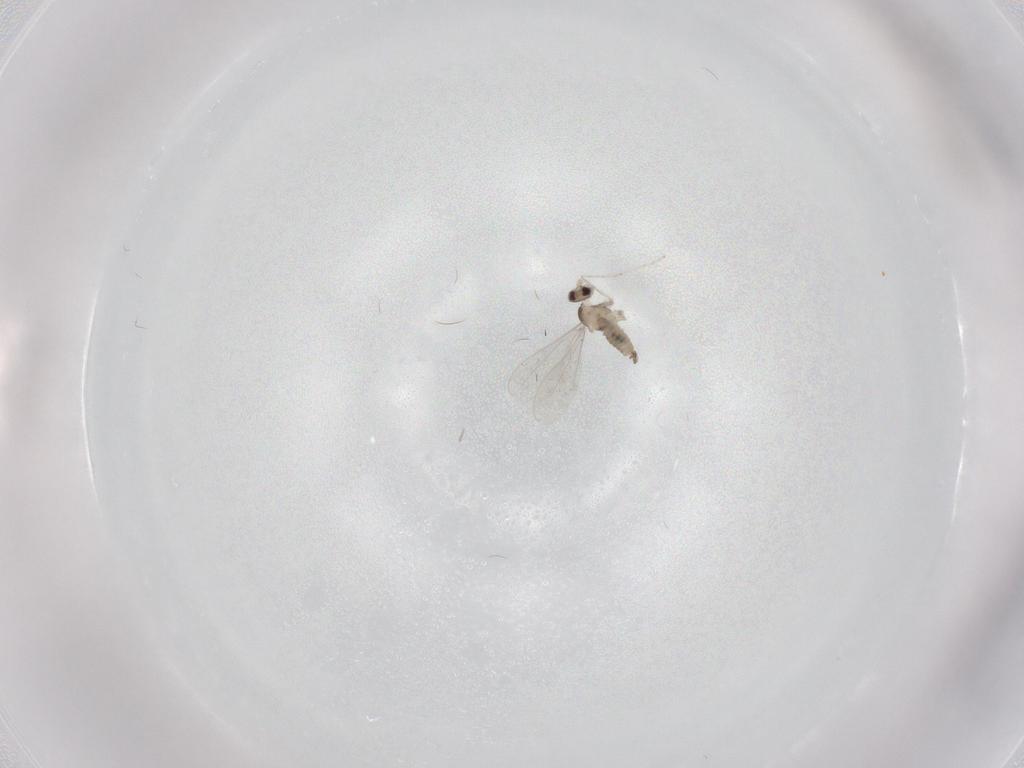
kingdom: Animalia
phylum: Arthropoda
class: Insecta
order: Diptera
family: Cecidomyiidae
